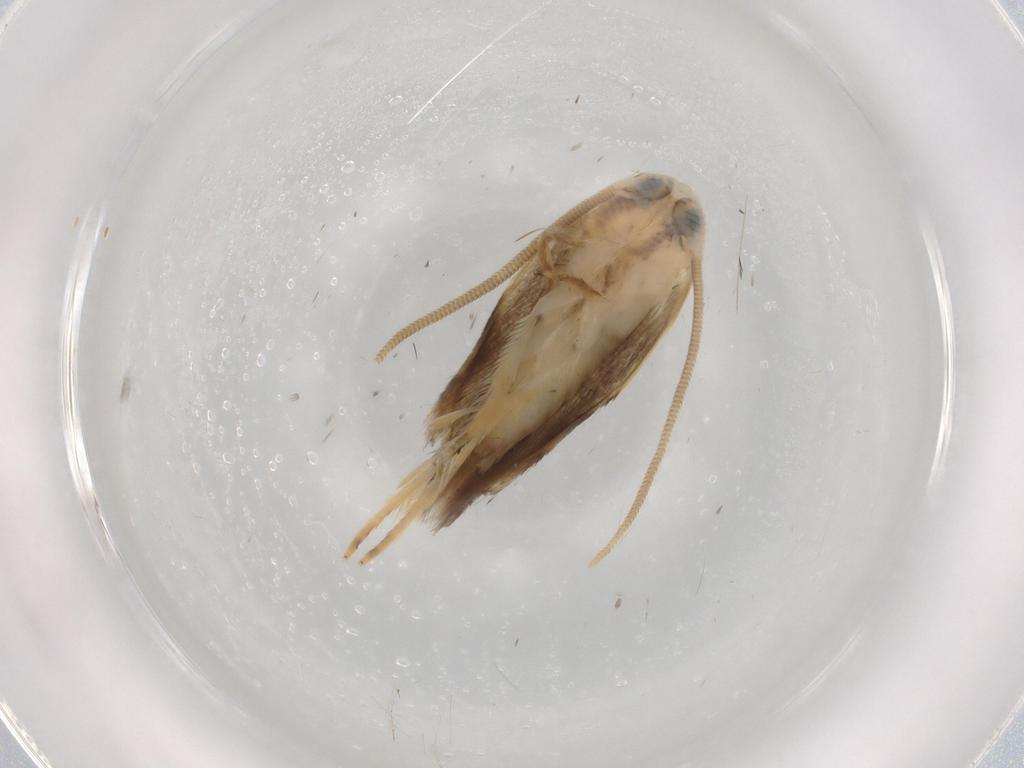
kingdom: Animalia
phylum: Arthropoda
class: Insecta
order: Lepidoptera
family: Opostegidae
